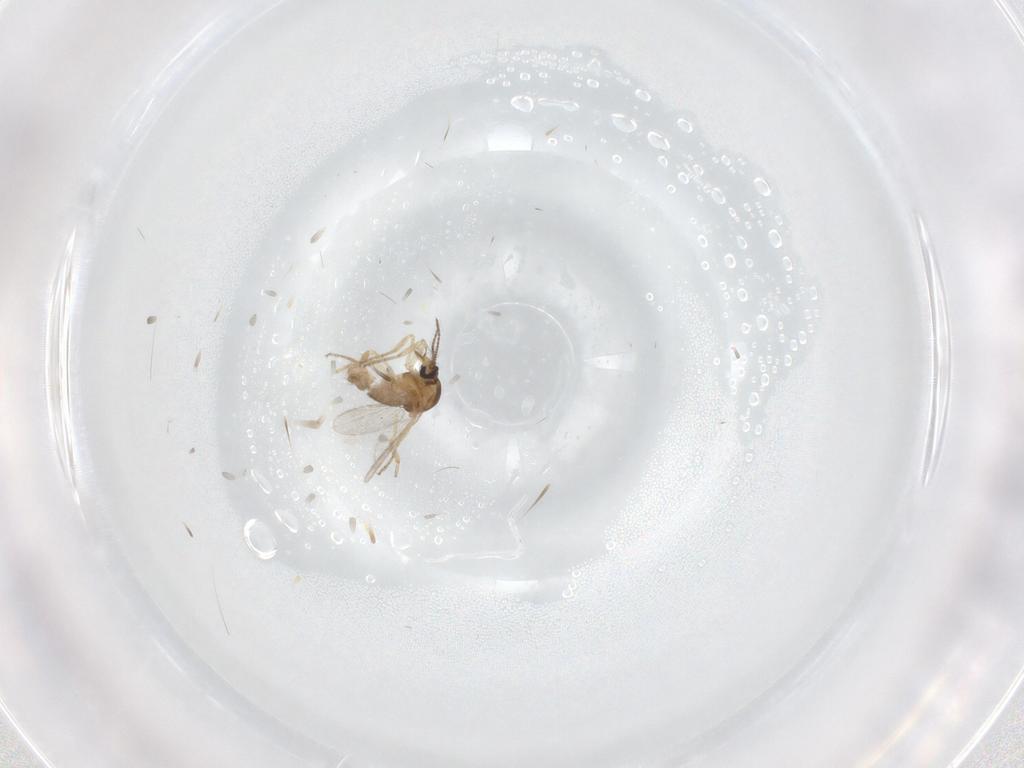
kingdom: Animalia
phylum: Arthropoda
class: Insecta
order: Diptera
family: Ceratopogonidae
